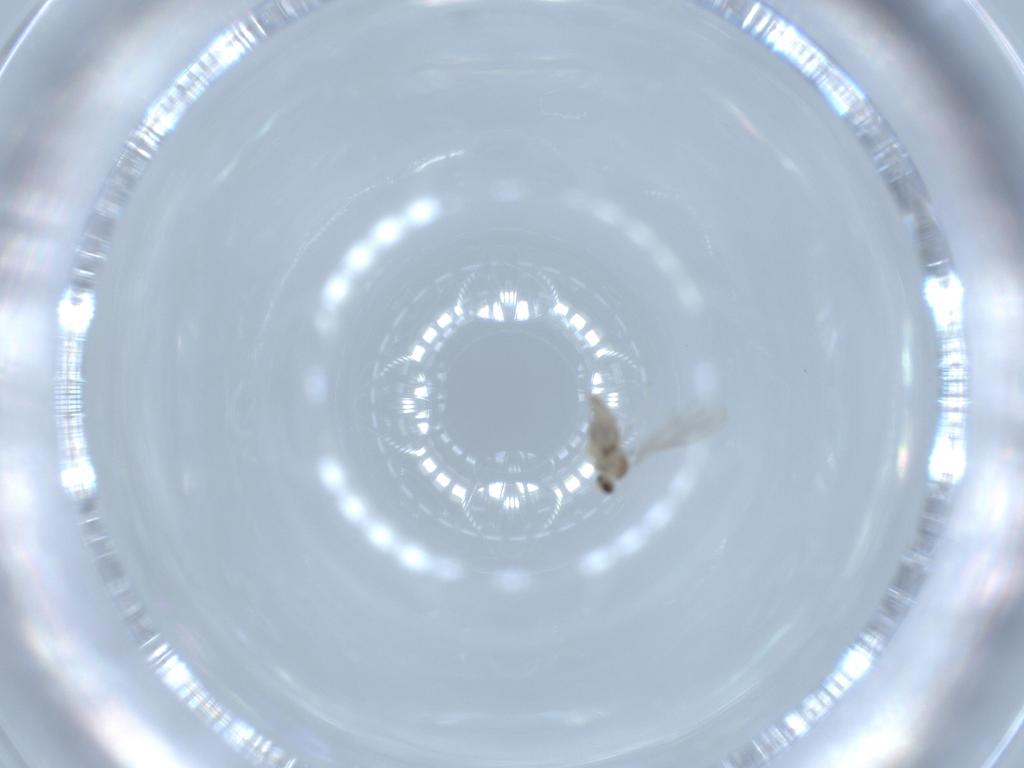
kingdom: Animalia
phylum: Arthropoda
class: Insecta
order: Diptera
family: Cecidomyiidae
